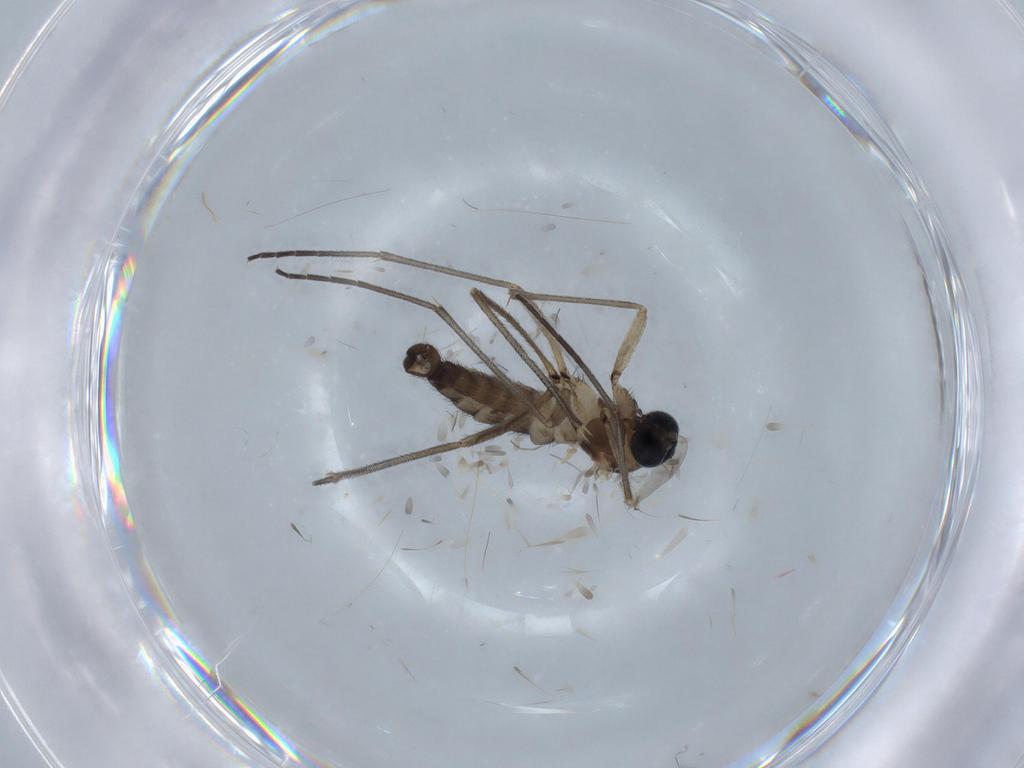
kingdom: Animalia
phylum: Arthropoda
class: Insecta
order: Diptera
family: Sciaridae
